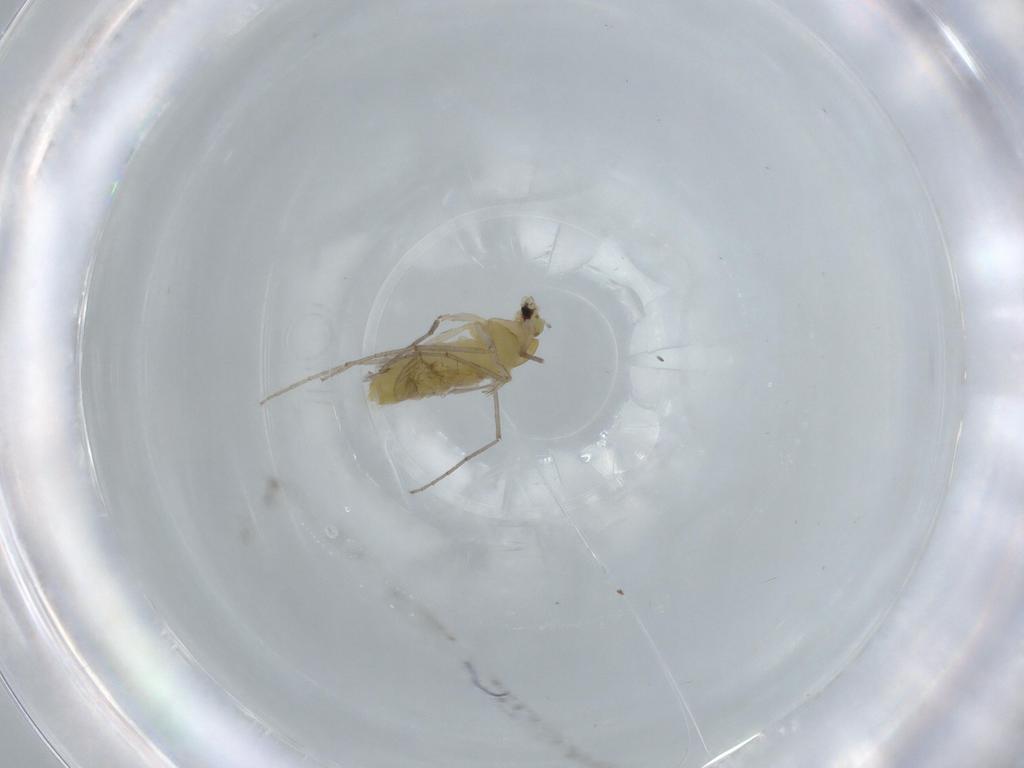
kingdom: Animalia
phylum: Arthropoda
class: Insecta
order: Diptera
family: Chironomidae
